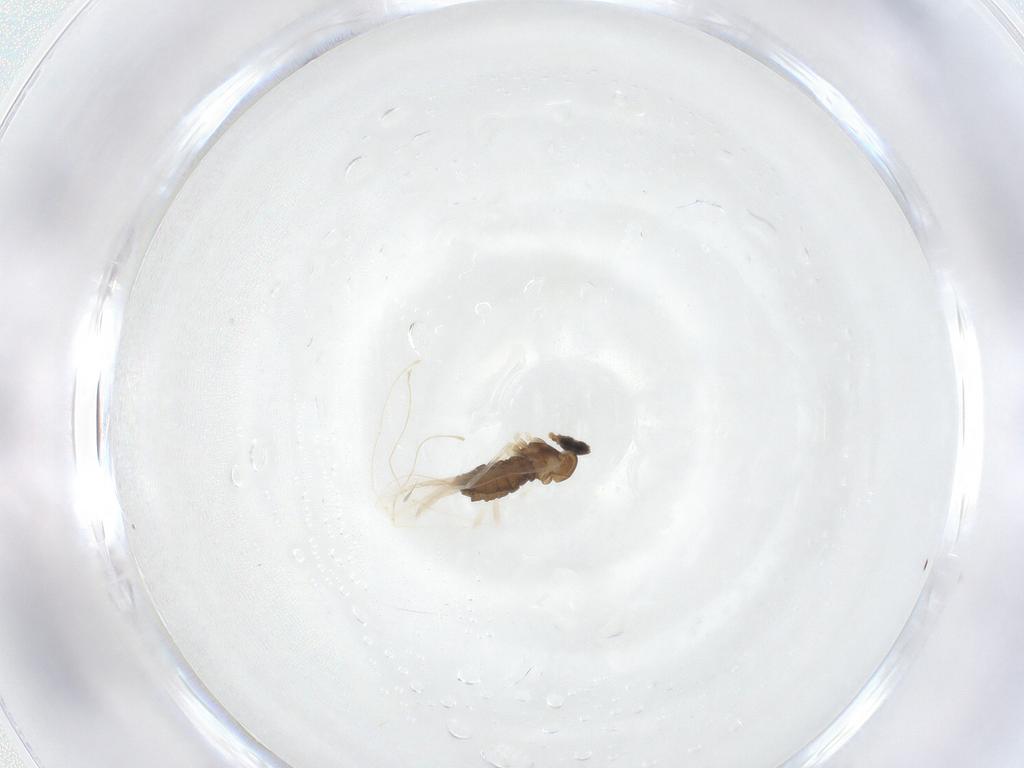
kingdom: Animalia
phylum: Arthropoda
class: Insecta
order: Diptera
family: Cecidomyiidae
